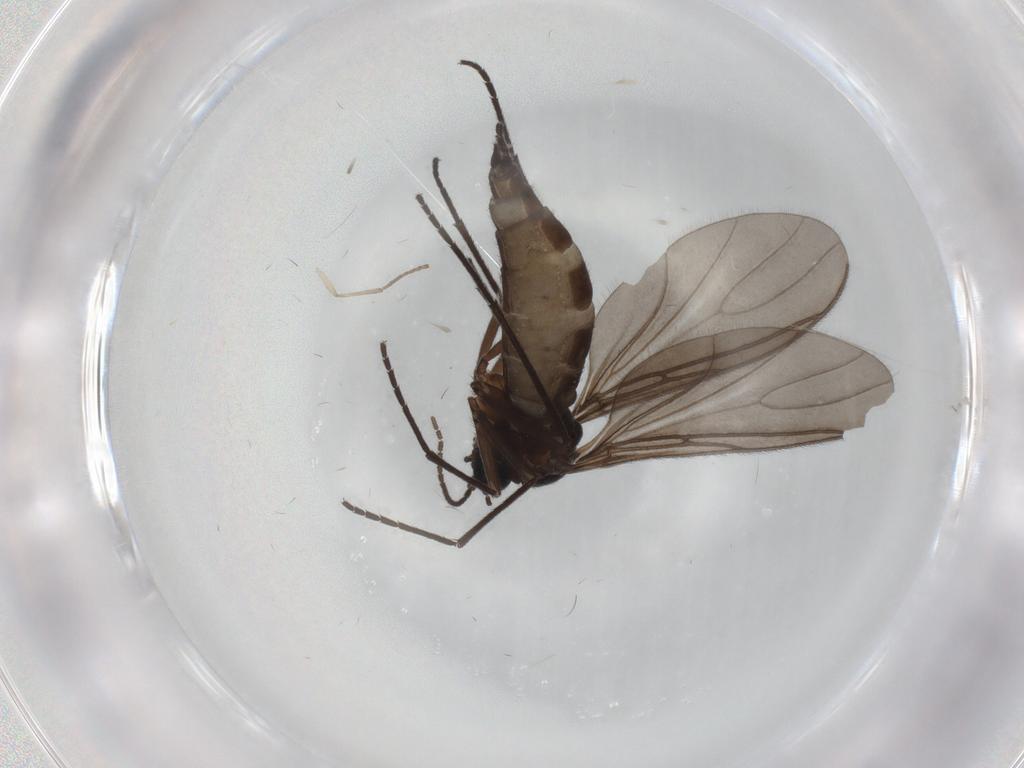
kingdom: Animalia
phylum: Arthropoda
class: Insecta
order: Diptera
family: Sciaridae
